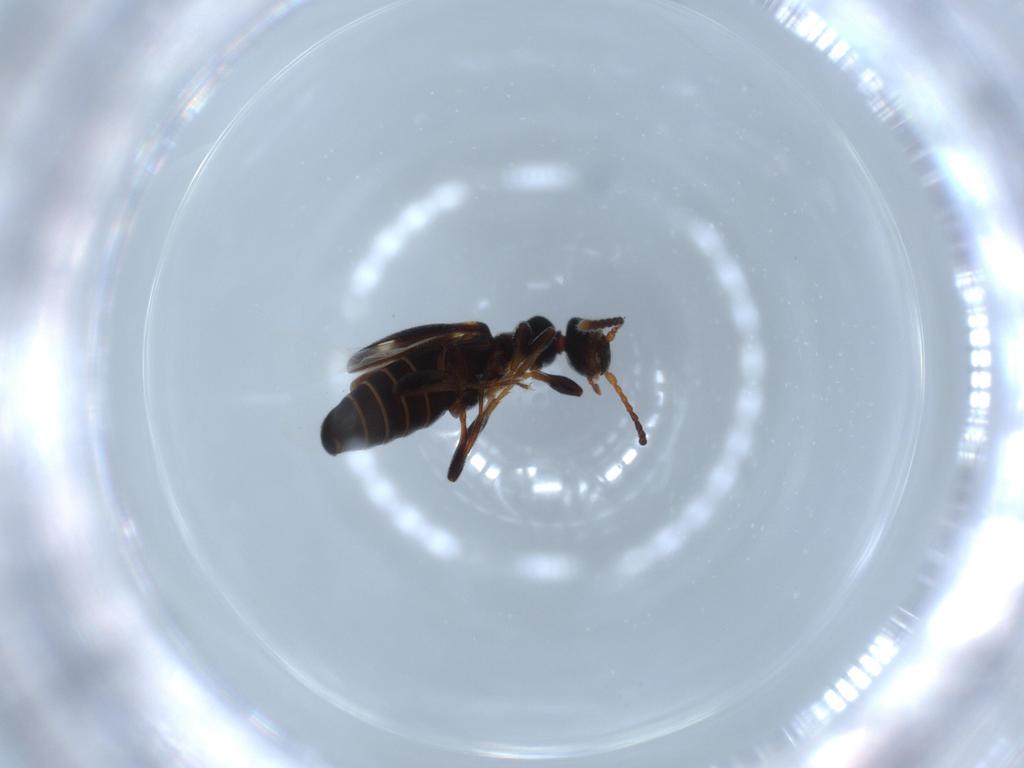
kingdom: Animalia
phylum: Arthropoda
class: Insecta
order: Coleoptera
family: Anthicidae
